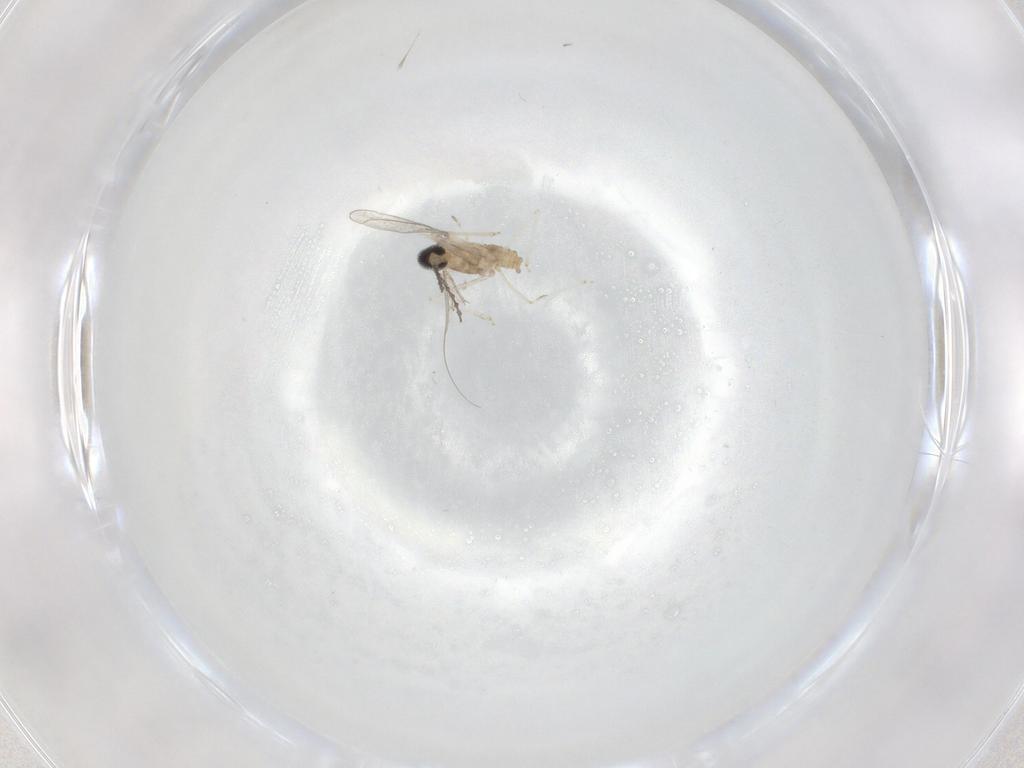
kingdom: Animalia
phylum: Arthropoda
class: Insecta
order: Diptera
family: Cecidomyiidae
